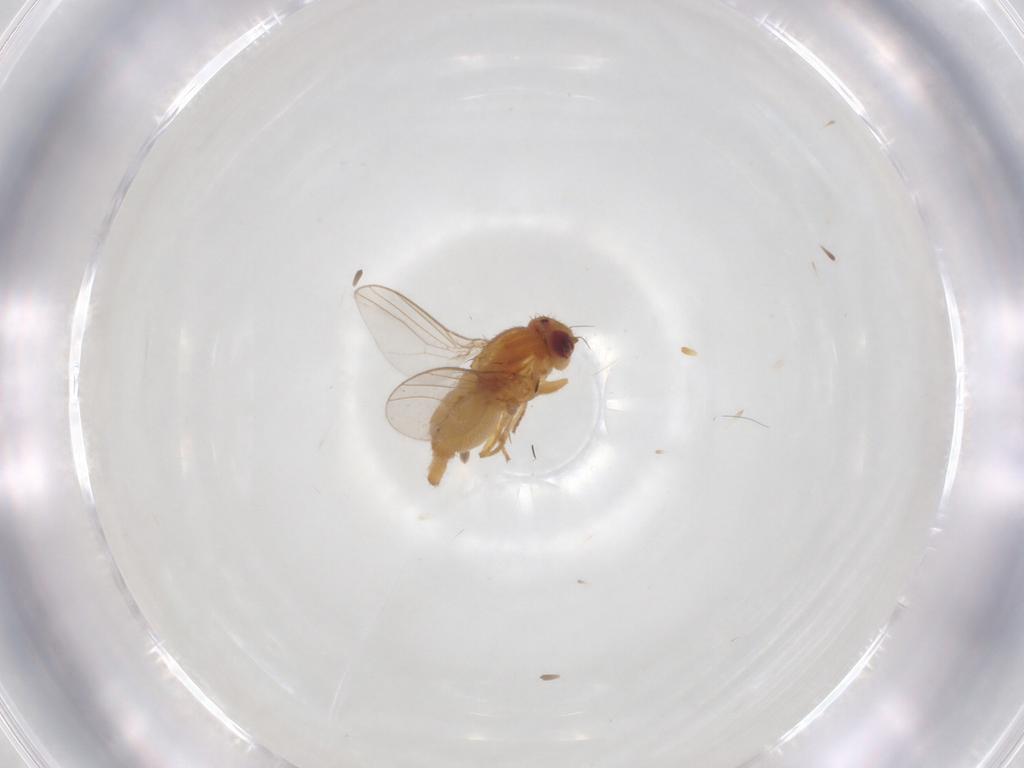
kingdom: Animalia
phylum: Arthropoda
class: Insecta
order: Diptera
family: Chloropidae
